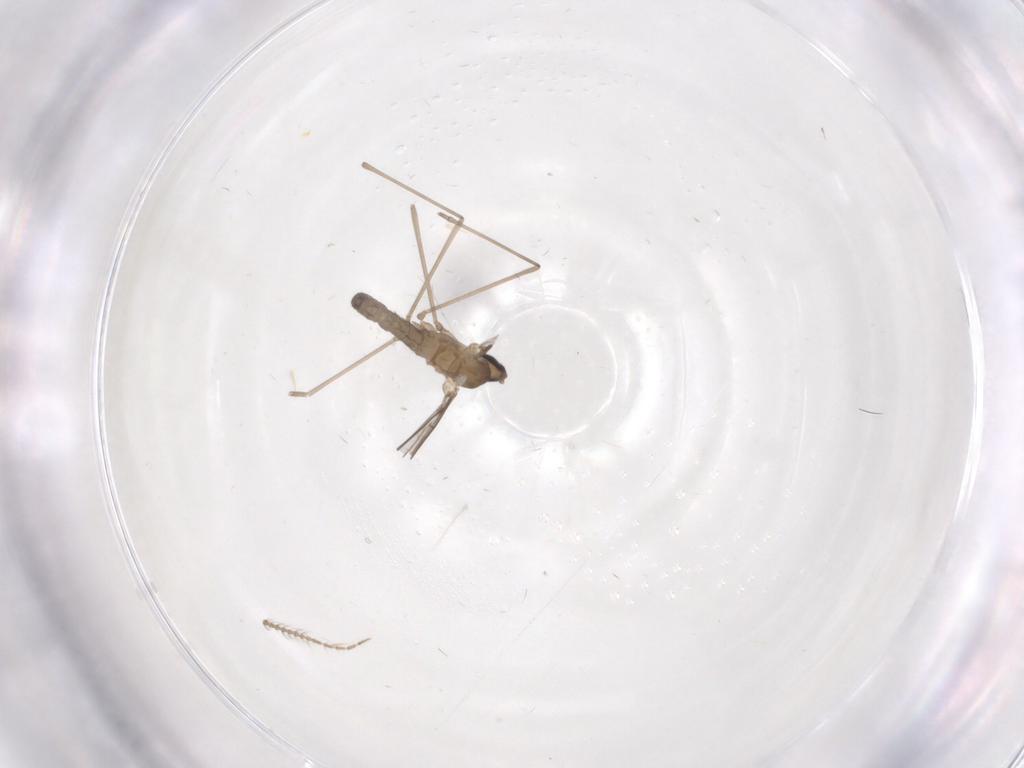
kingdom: Animalia
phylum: Arthropoda
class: Insecta
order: Diptera
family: Ceratopogonidae
